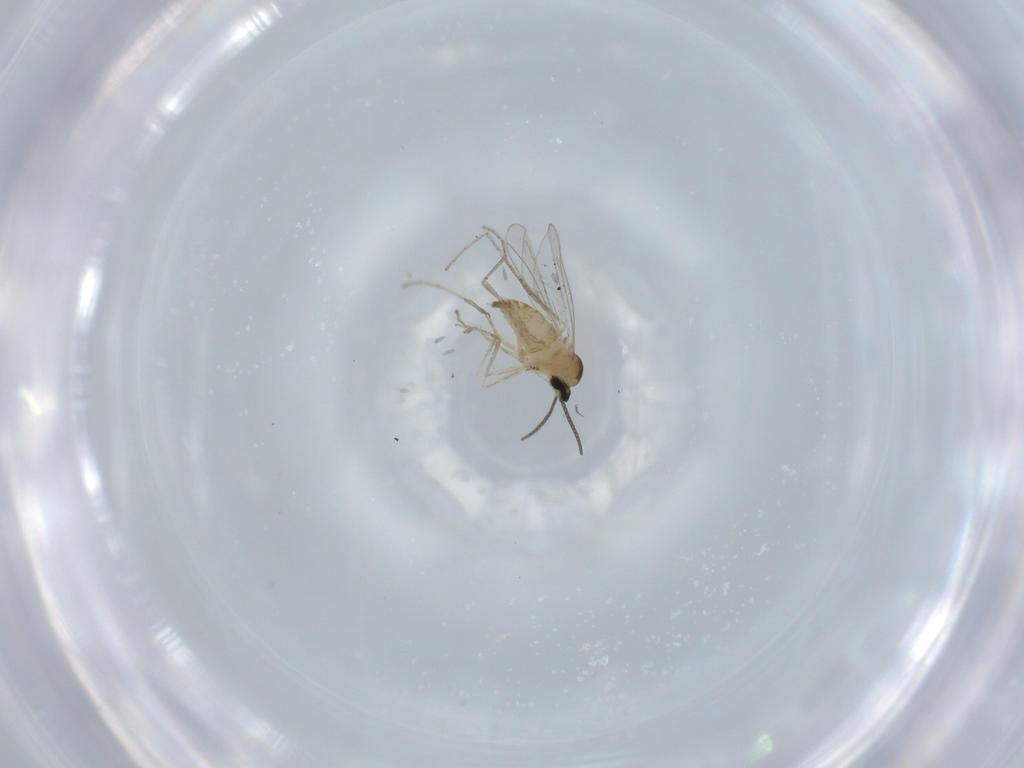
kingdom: Animalia
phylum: Arthropoda
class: Insecta
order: Diptera
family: Cecidomyiidae
